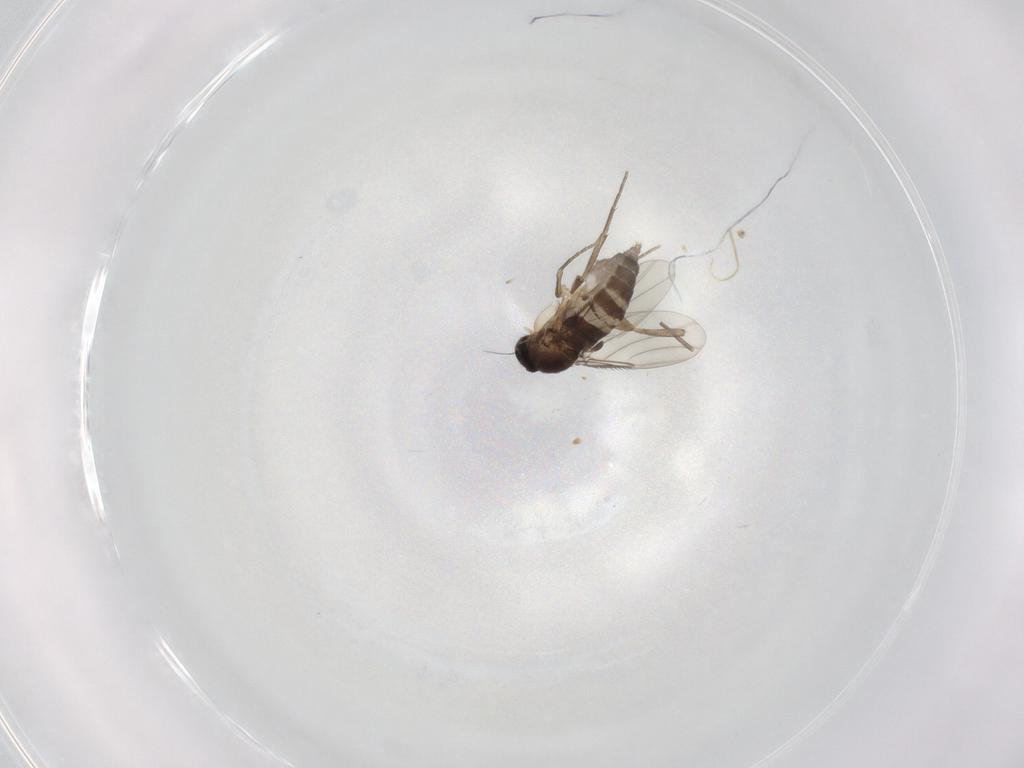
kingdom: Animalia
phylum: Arthropoda
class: Insecta
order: Diptera
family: Phoridae
